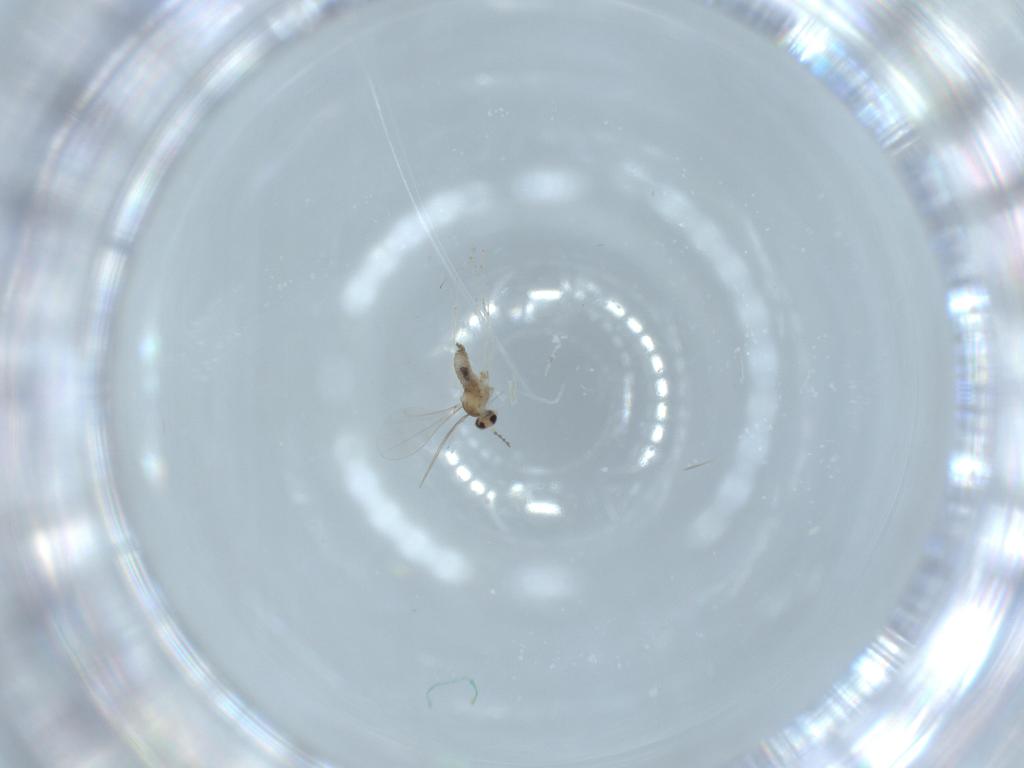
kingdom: Animalia
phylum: Arthropoda
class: Insecta
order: Diptera
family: Cecidomyiidae
